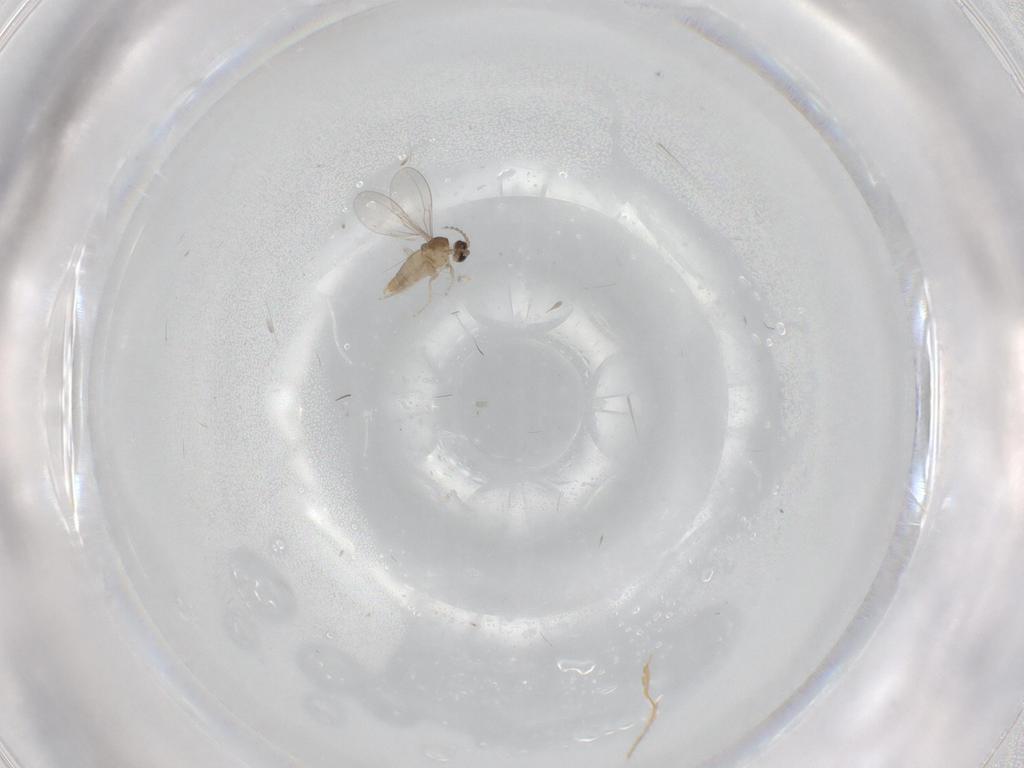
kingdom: Animalia
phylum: Arthropoda
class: Insecta
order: Diptera
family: Cecidomyiidae
